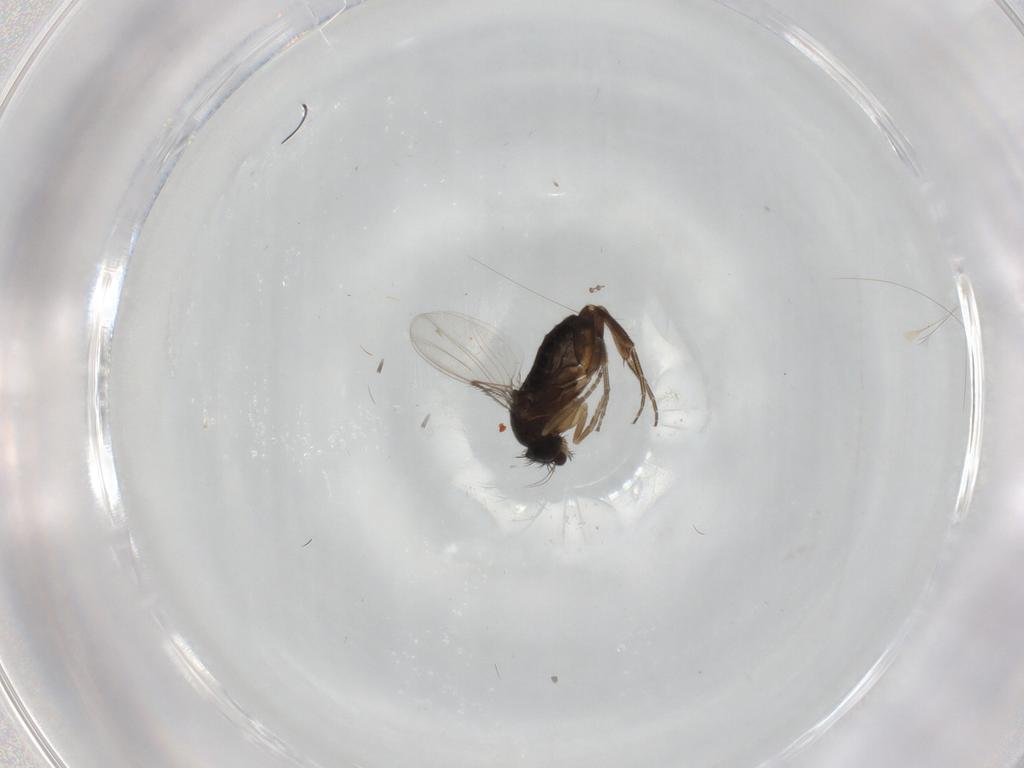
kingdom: Animalia
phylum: Arthropoda
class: Insecta
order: Diptera
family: Phoridae
